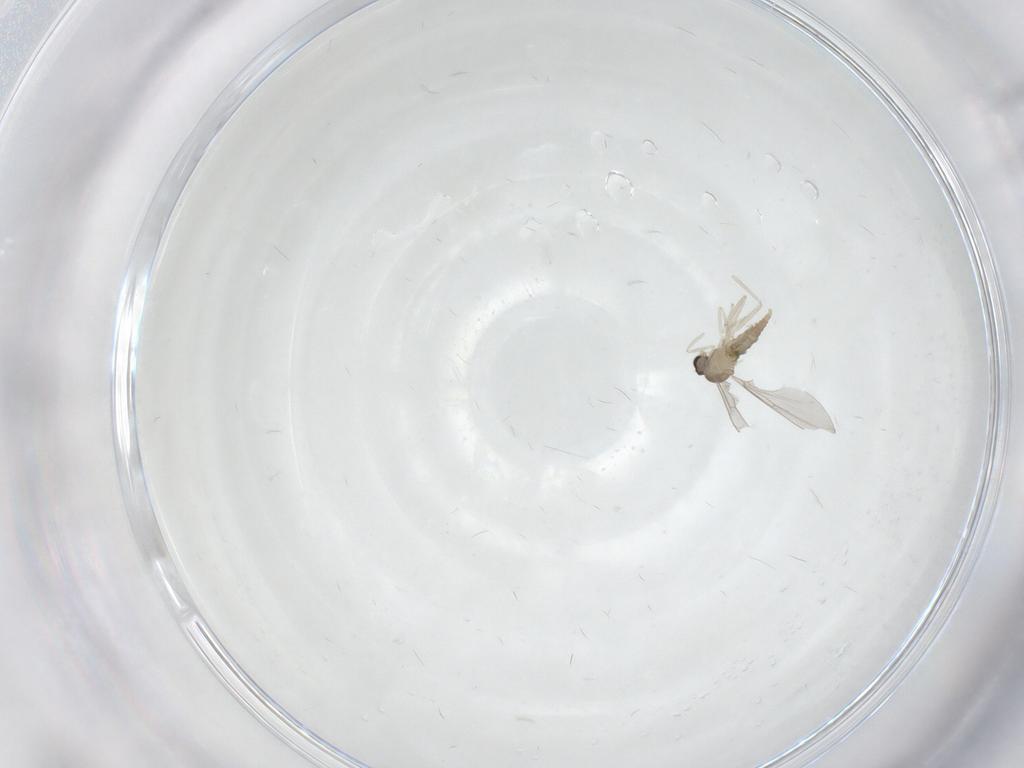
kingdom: Animalia
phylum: Arthropoda
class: Insecta
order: Diptera
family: Cecidomyiidae
